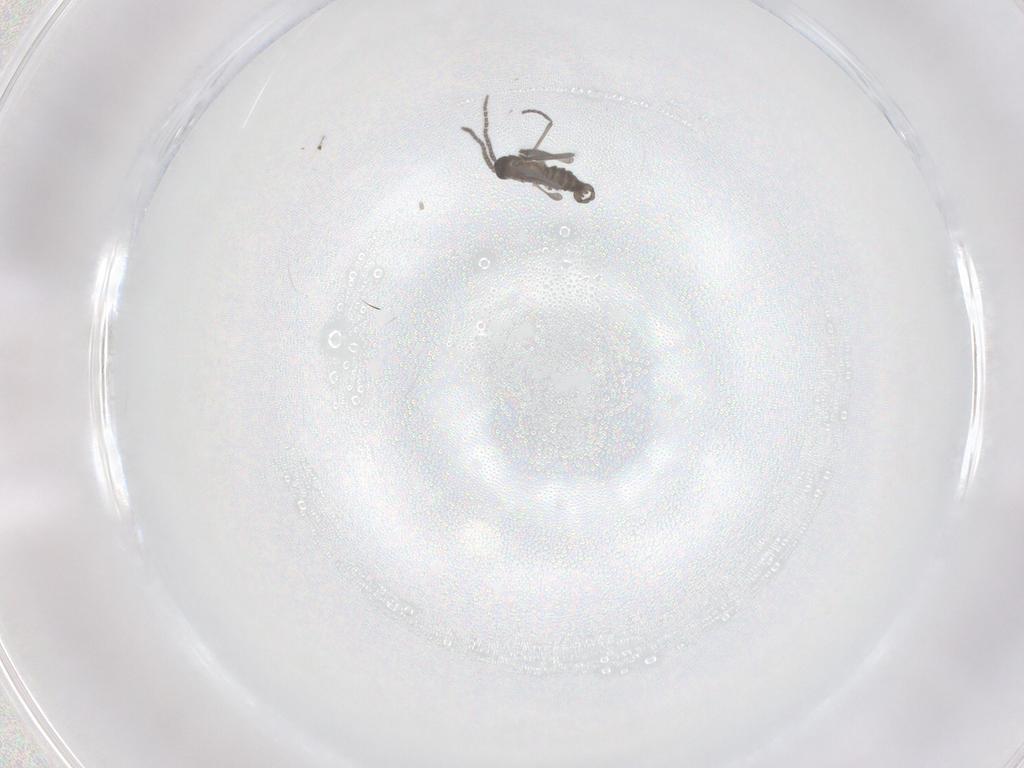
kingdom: Animalia
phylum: Arthropoda
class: Insecta
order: Diptera
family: Sciaridae
